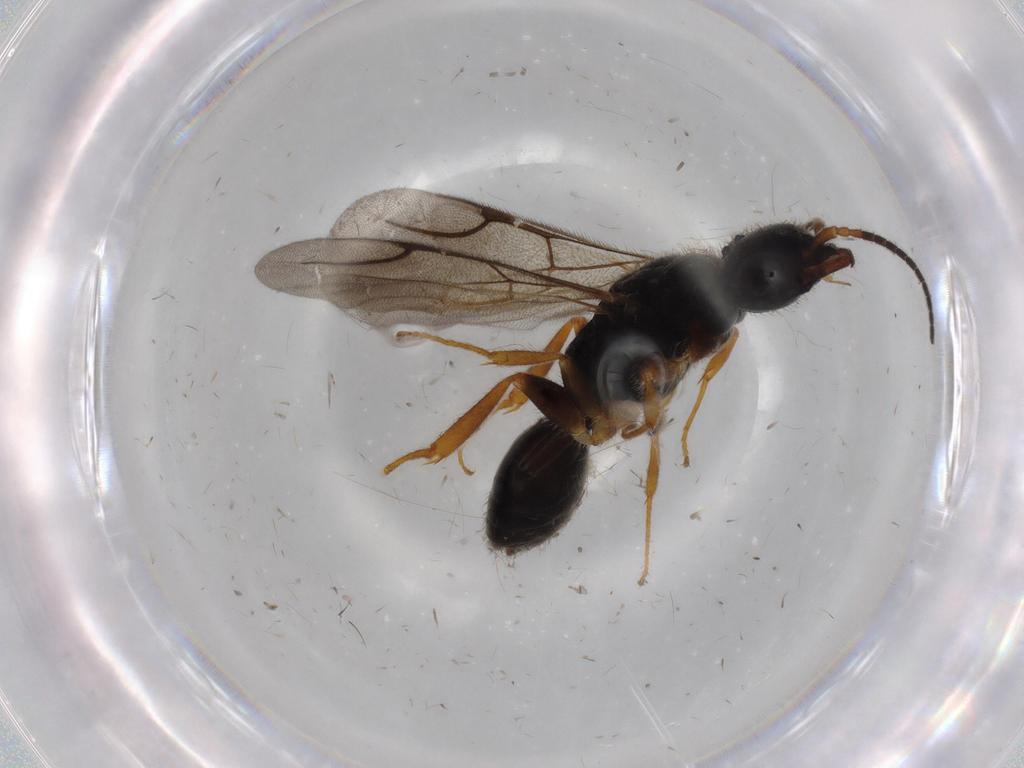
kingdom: Animalia
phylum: Arthropoda
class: Insecta
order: Hymenoptera
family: Bethylidae
